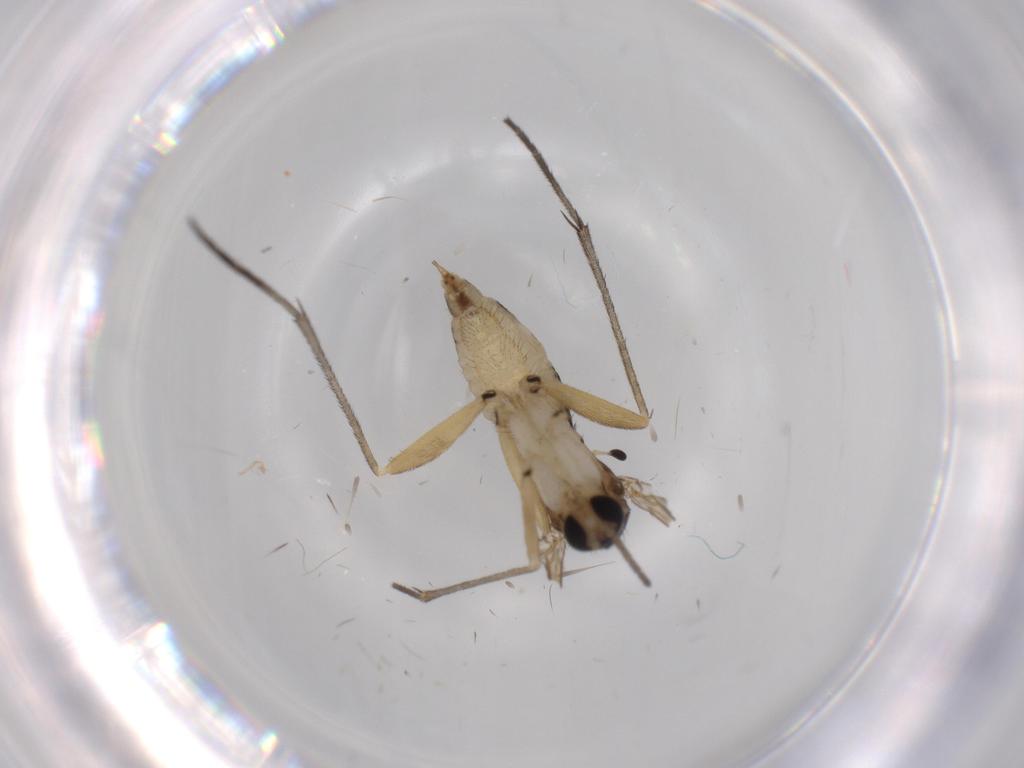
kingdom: Animalia
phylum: Arthropoda
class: Insecta
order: Diptera
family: Sciaridae
